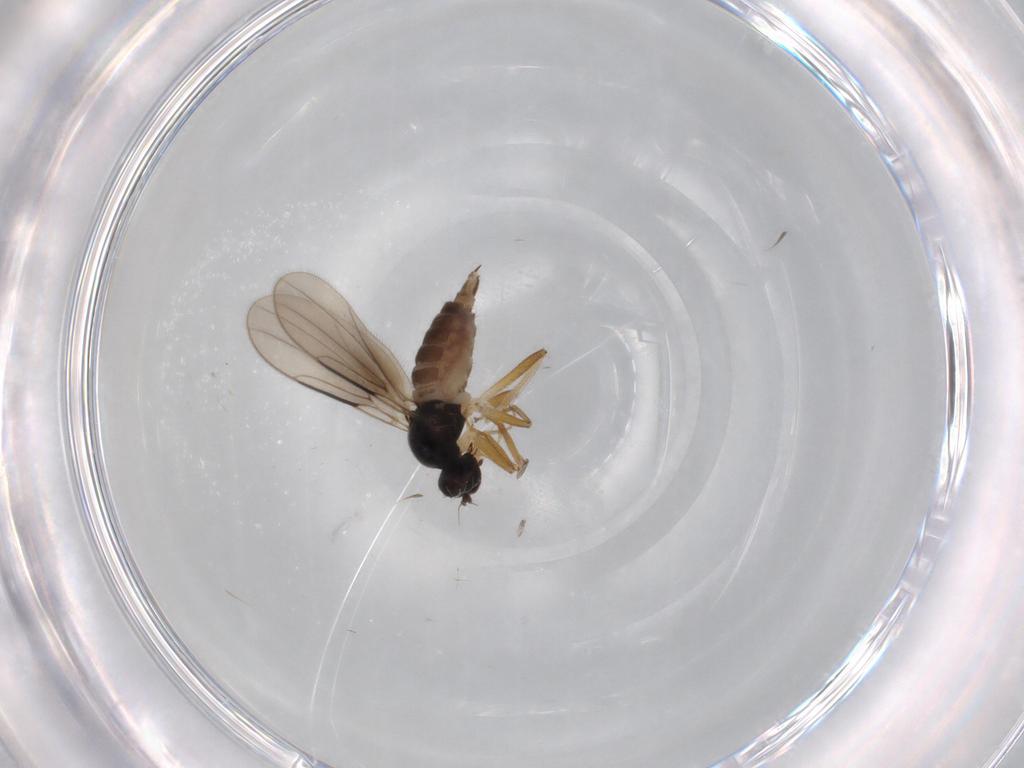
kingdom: Animalia
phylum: Arthropoda
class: Insecta
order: Diptera
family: Hybotidae
